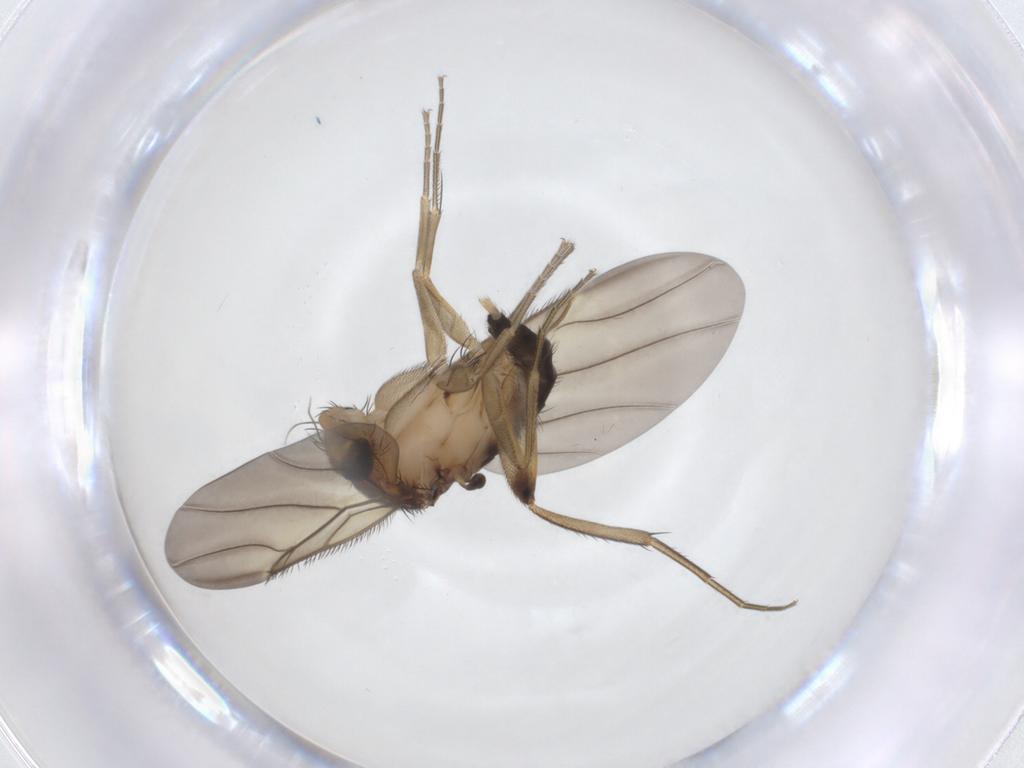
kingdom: Animalia
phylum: Arthropoda
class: Insecta
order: Diptera
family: Phoridae
